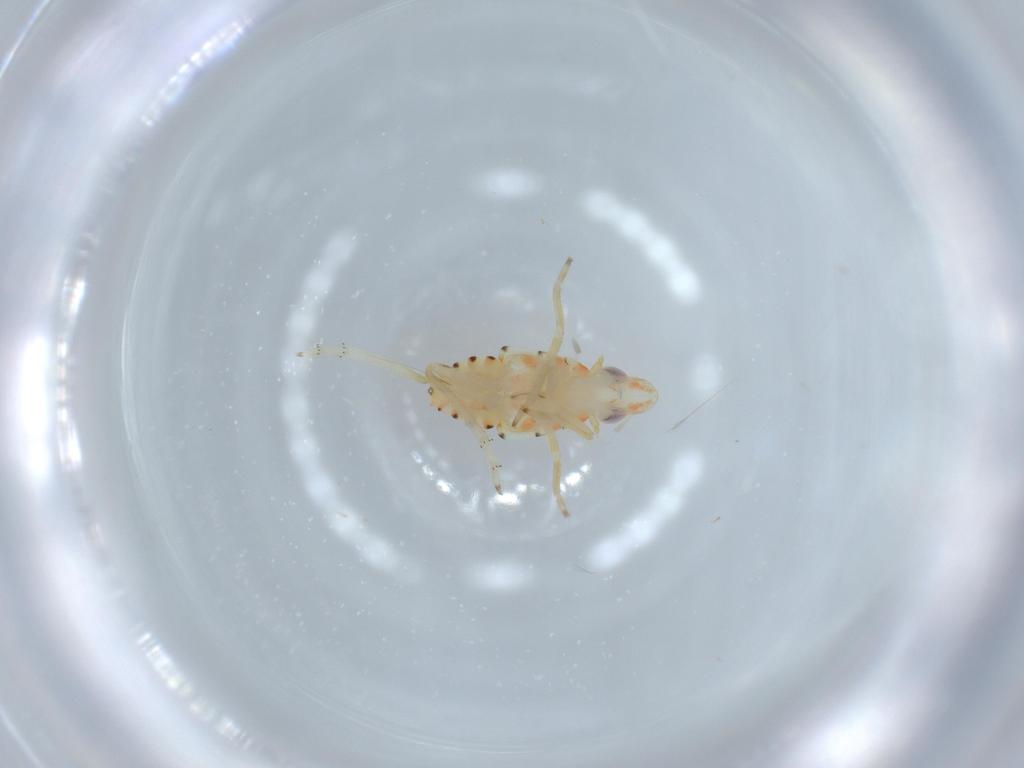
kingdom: Animalia
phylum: Arthropoda
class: Insecta
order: Hemiptera
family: Tropiduchidae
